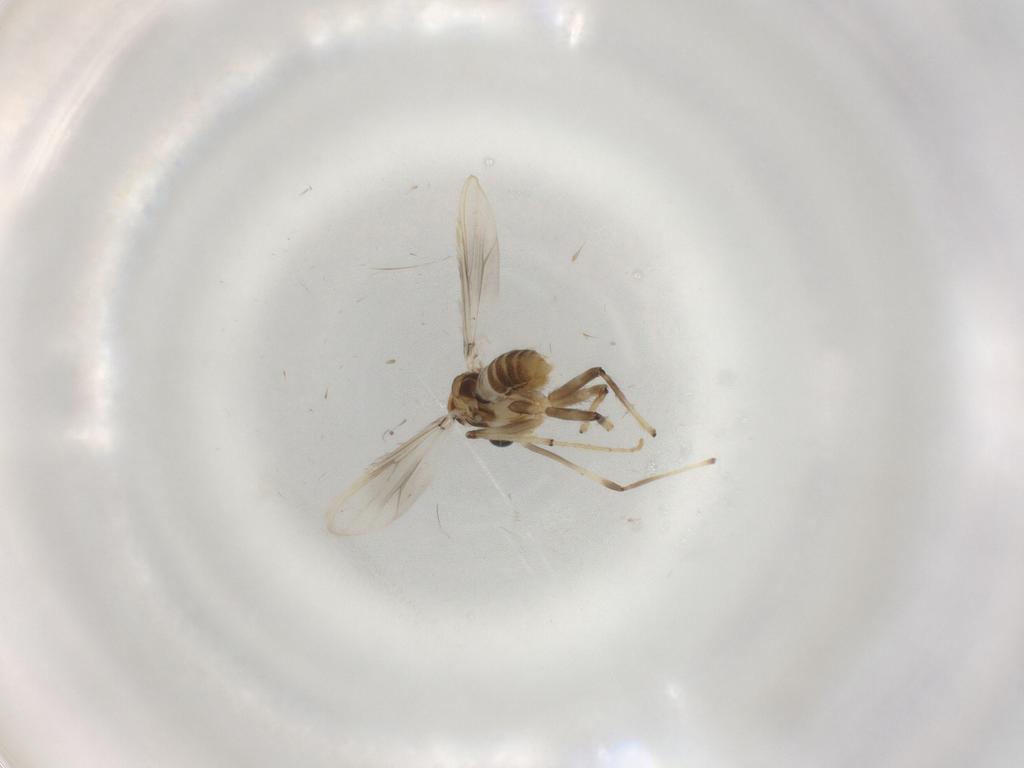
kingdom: Animalia
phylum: Arthropoda
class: Insecta
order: Diptera
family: Chironomidae
